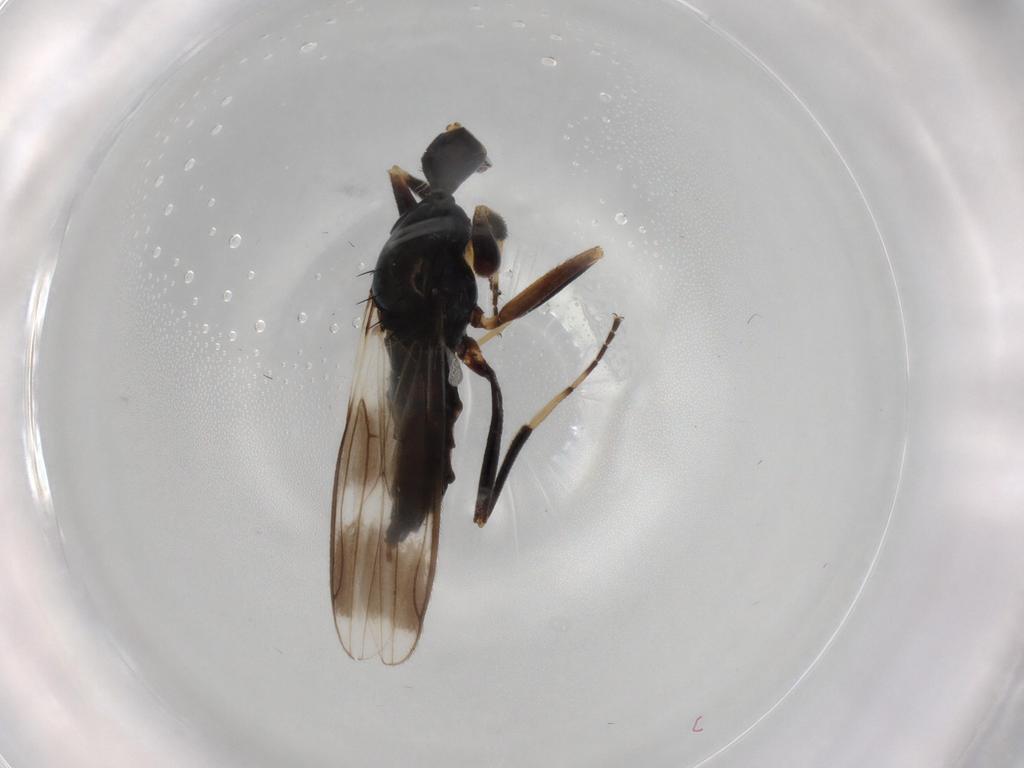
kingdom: Animalia
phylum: Arthropoda
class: Insecta
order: Diptera
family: Hybotidae
